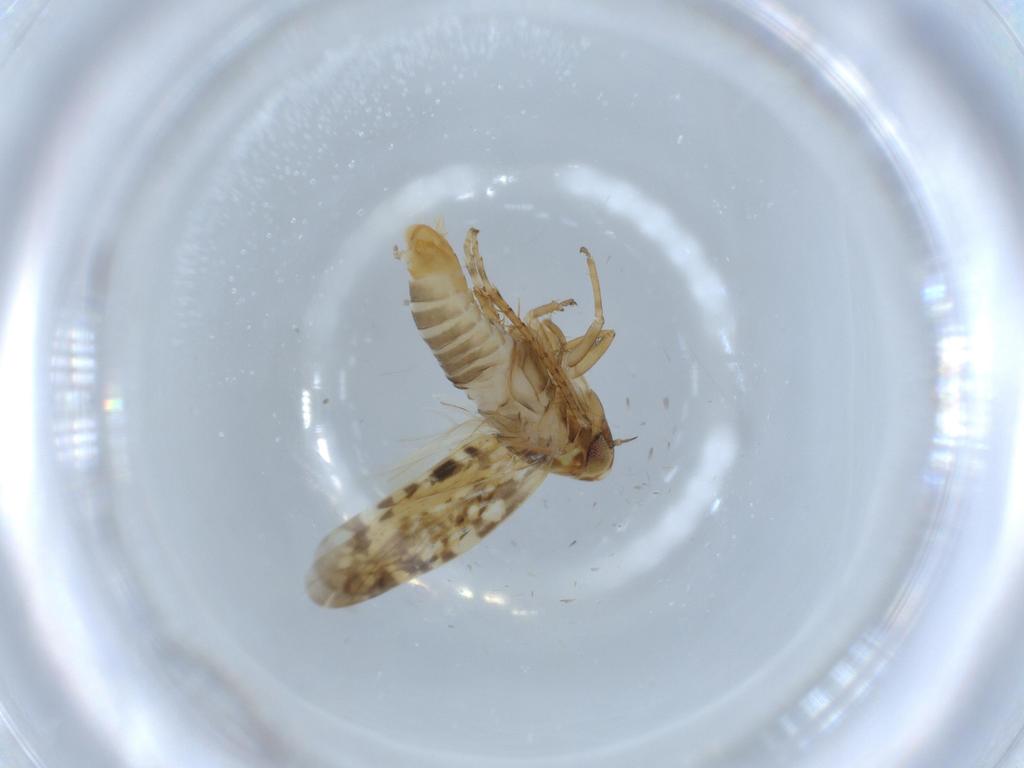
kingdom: Animalia
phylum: Arthropoda
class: Insecta
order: Hemiptera
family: Cicadellidae
